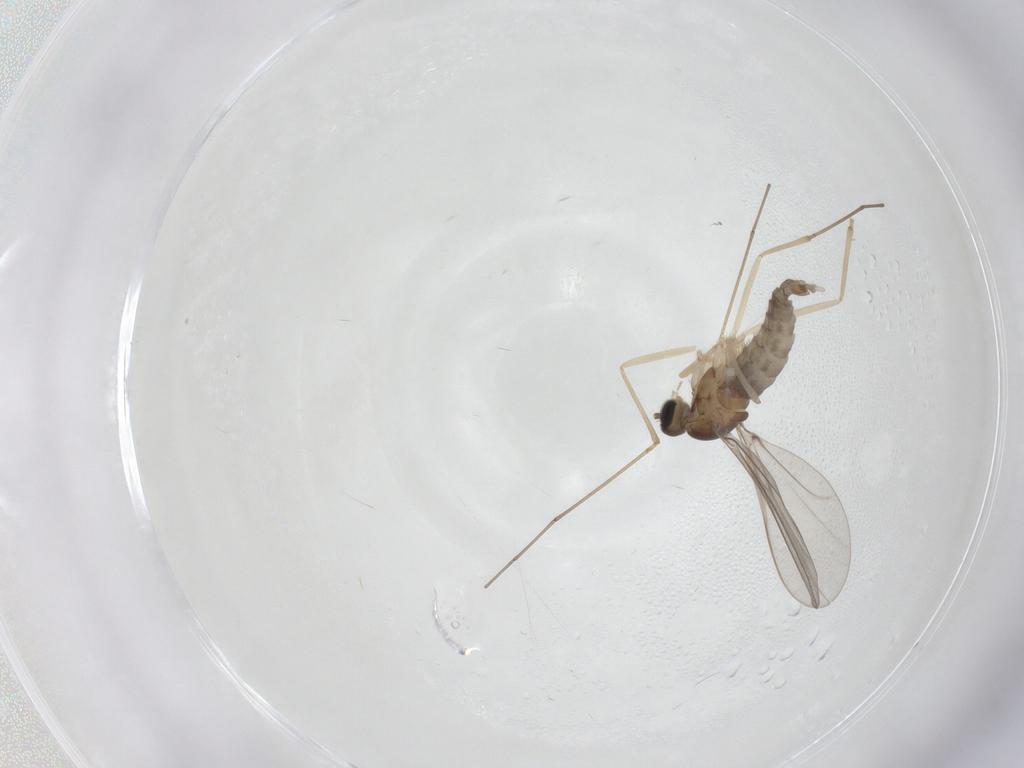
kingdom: Animalia
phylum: Arthropoda
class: Insecta
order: Diptera
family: Cecidomyiidae
